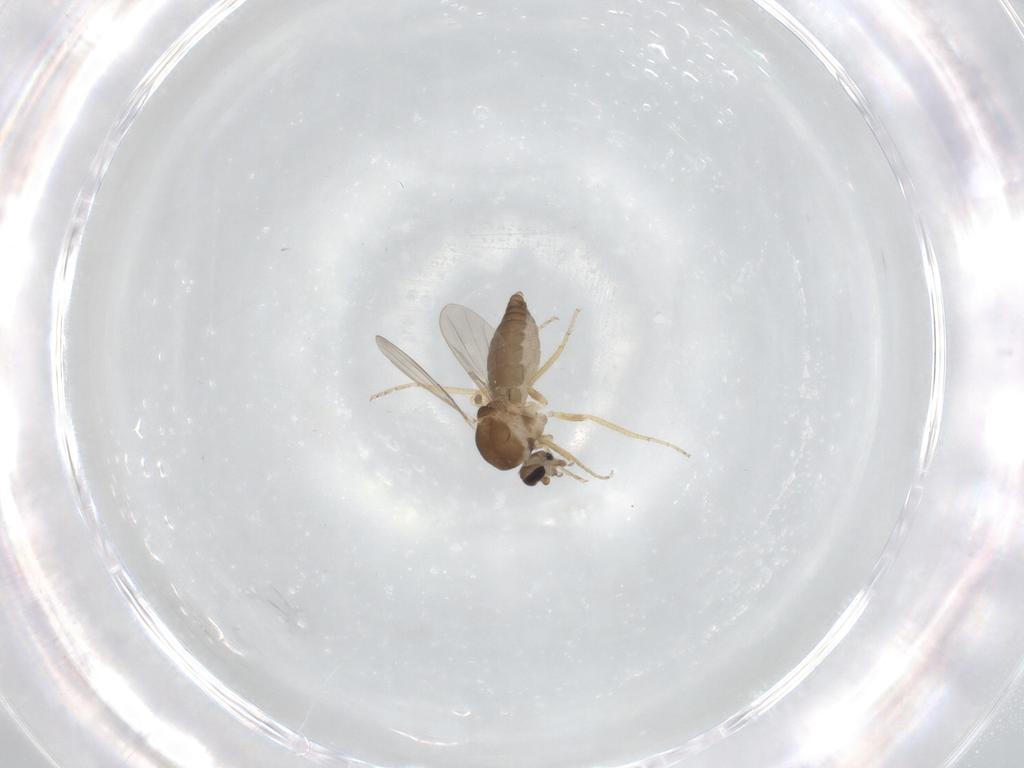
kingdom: Animalia
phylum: Arthropoda
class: Insecta
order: Diptera
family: Ceratopogonidae
